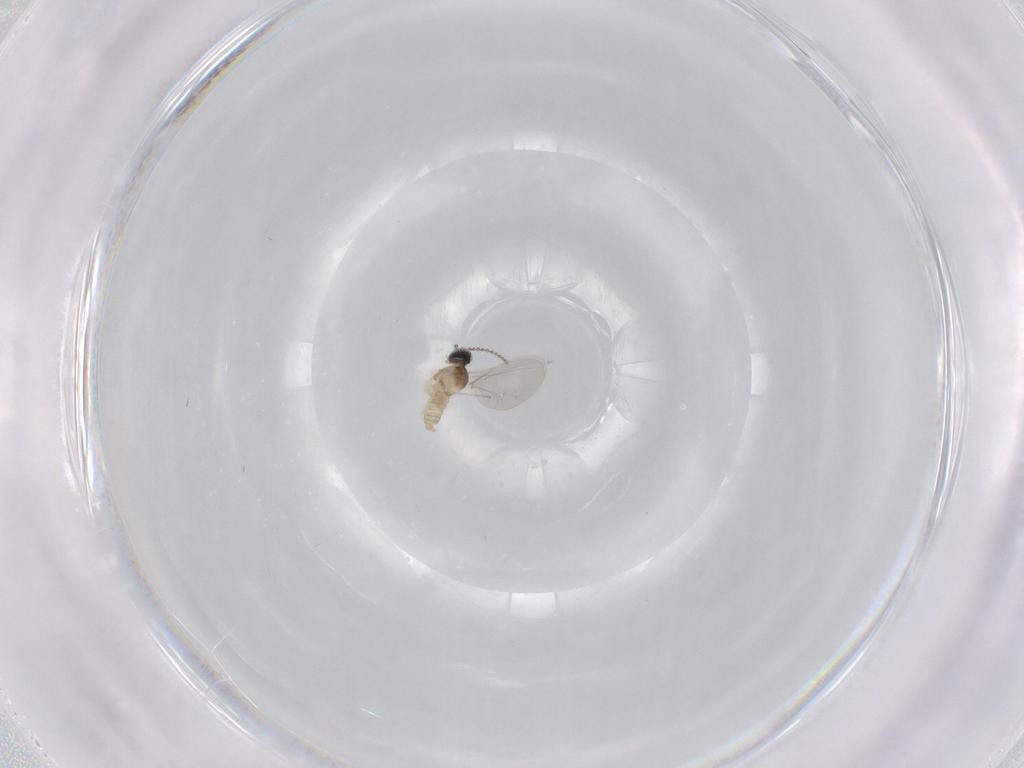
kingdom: Animalia
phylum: Arthropoda
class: Insecta
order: Diptera
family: Cecidomyiidae
